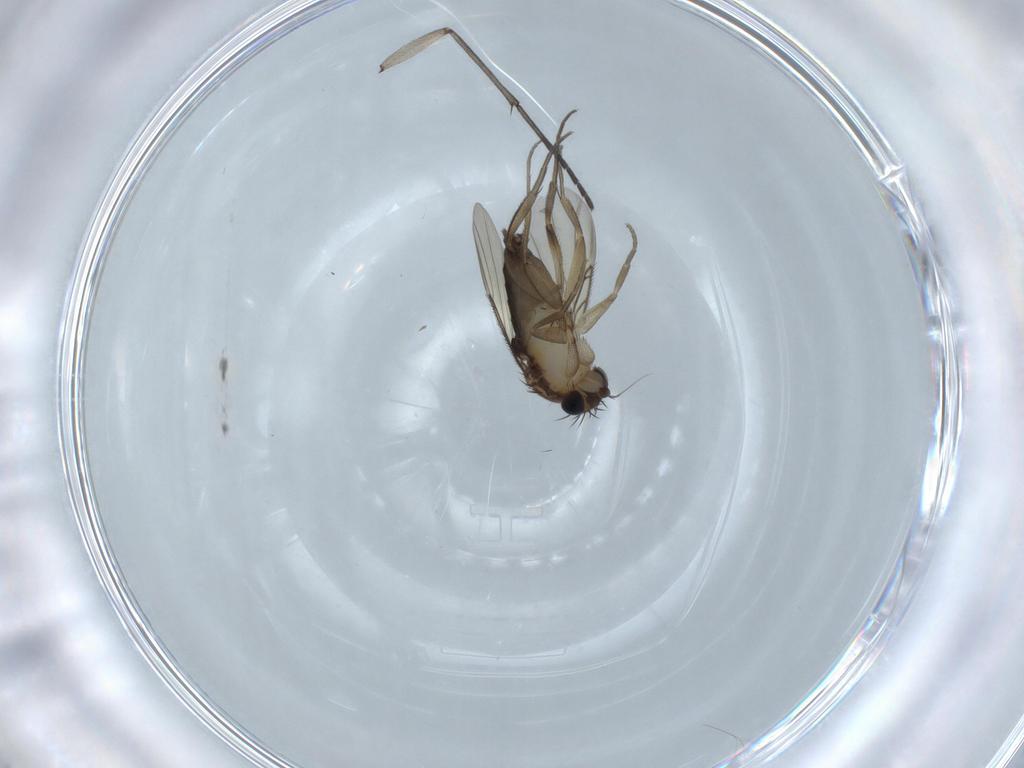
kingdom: Animalia
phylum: Arthropoda
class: Insecta
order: Diptera
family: Phoridae
